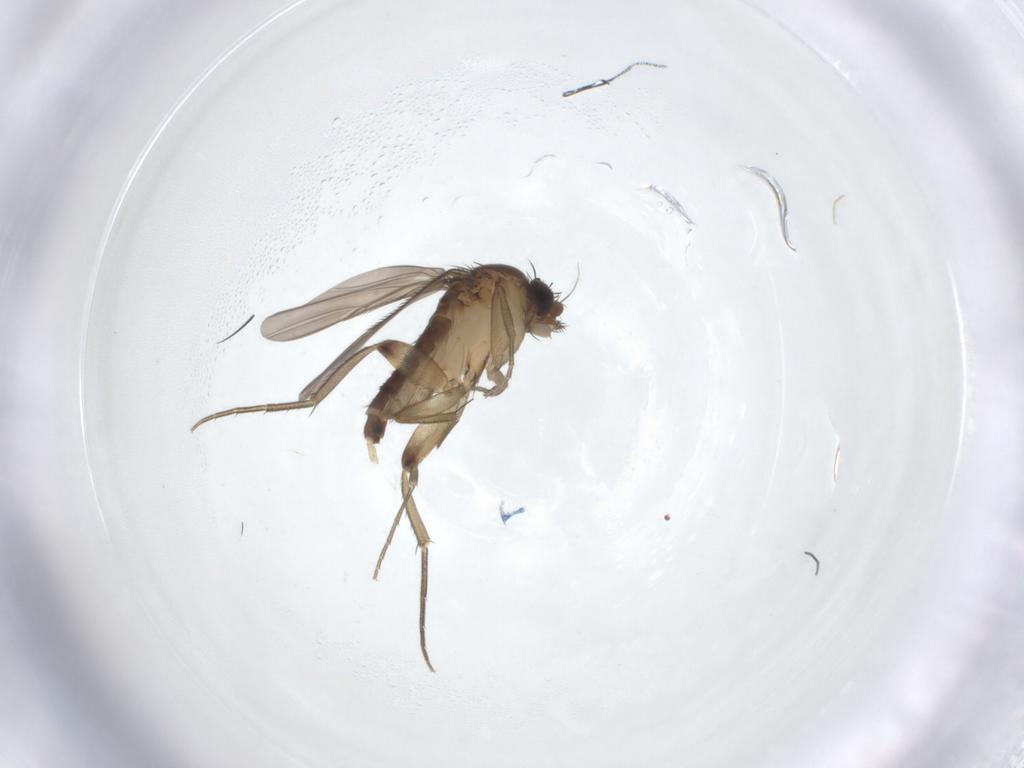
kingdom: Animalia
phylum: Arthropoda
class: Insecta
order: Diptera
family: Phoridae
